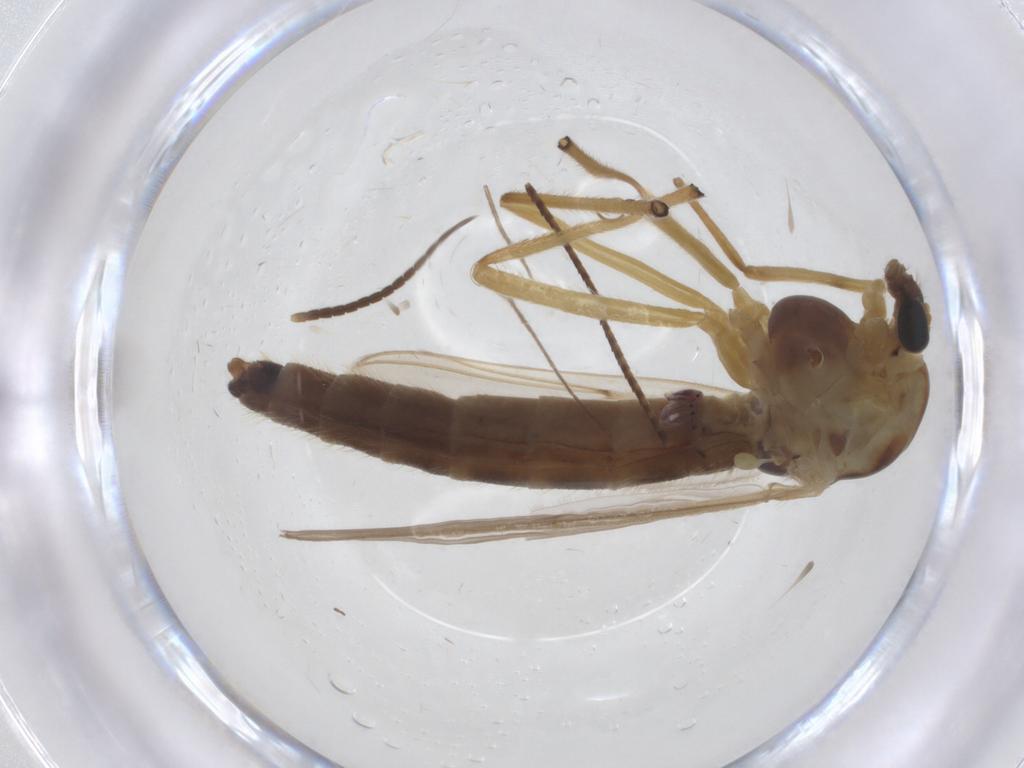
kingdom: Animalia
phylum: Arthropoda
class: Insecta
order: Diptera
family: Chironomidae
